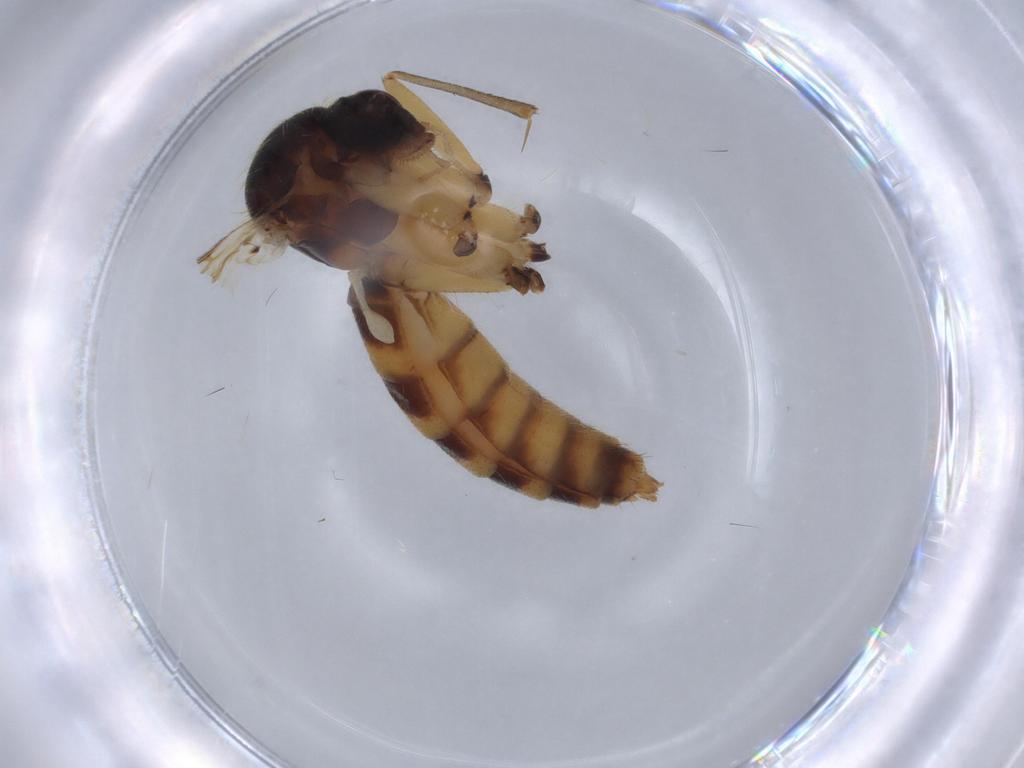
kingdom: Animalia
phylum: Arthropoda
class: Insecta
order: Diptera
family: Mycetophilidae
